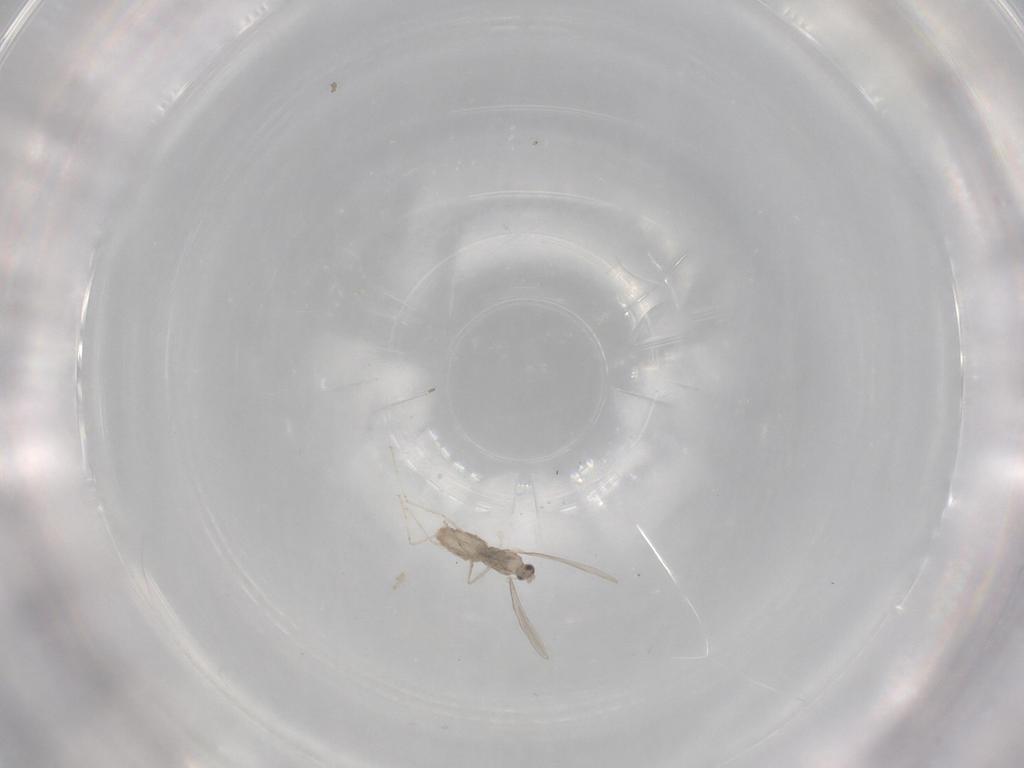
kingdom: Animalia
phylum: Arthropoda
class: Insecta
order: Diptera
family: Cecidomyiidae
